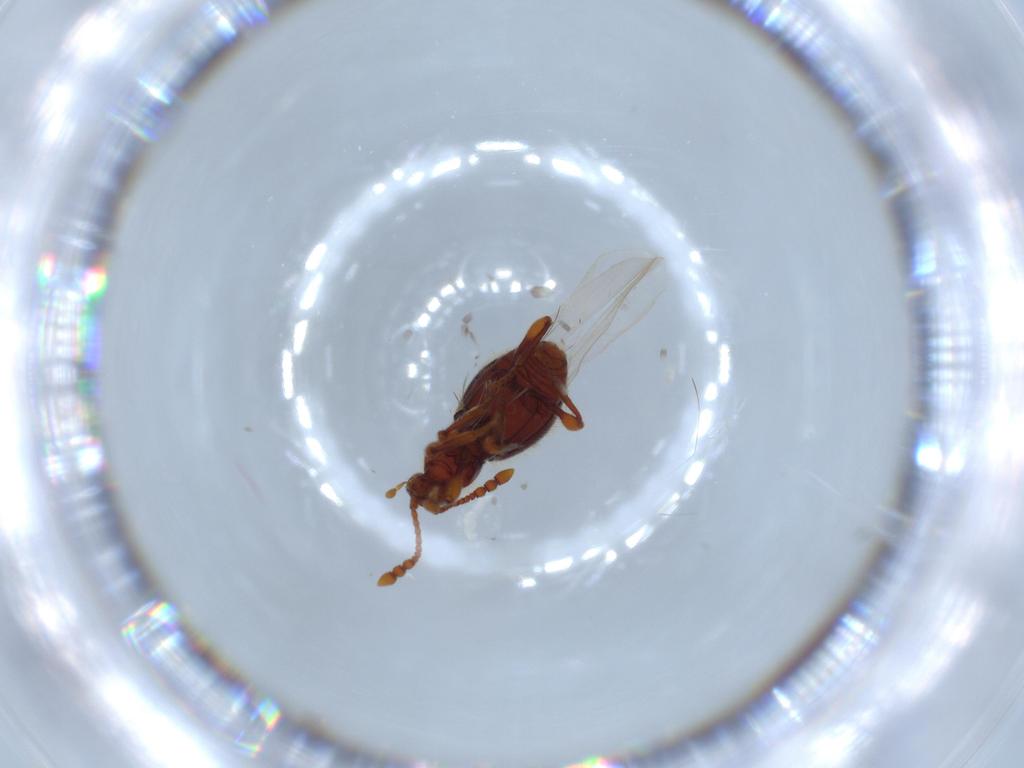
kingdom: Animalia
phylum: Arthropoda
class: Insecta
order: Coleoptera
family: Staphylinidae
